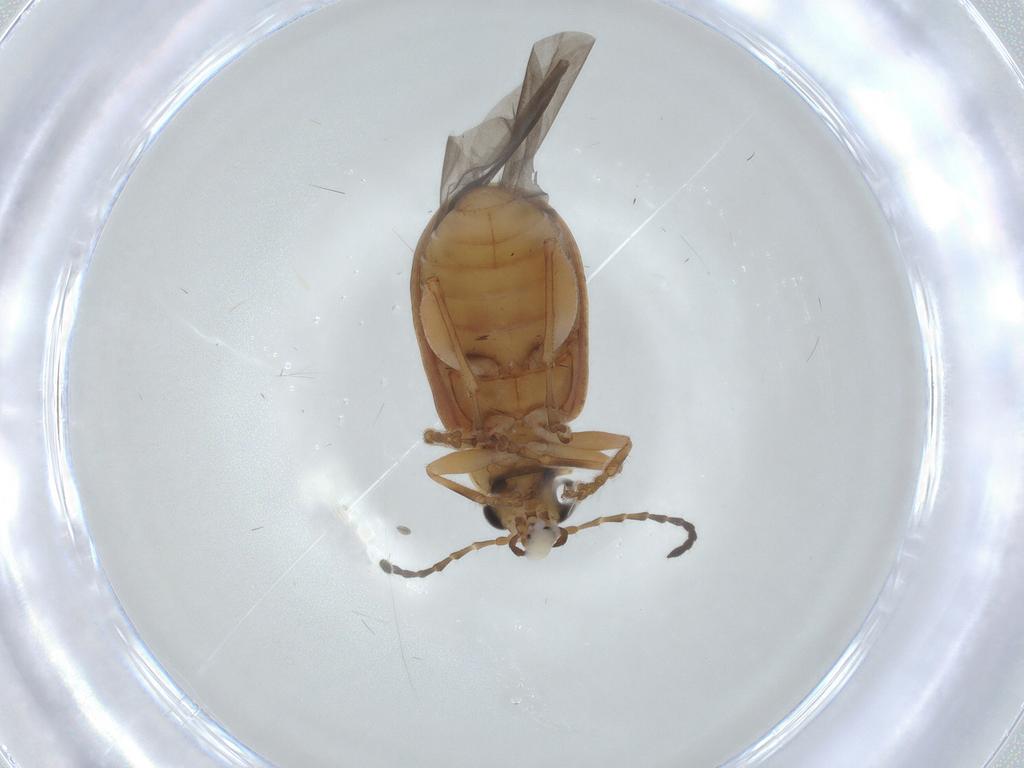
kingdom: Animalia
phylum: Arthropoda
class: Insecta
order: Coleoptera
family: Chrysomelidae
